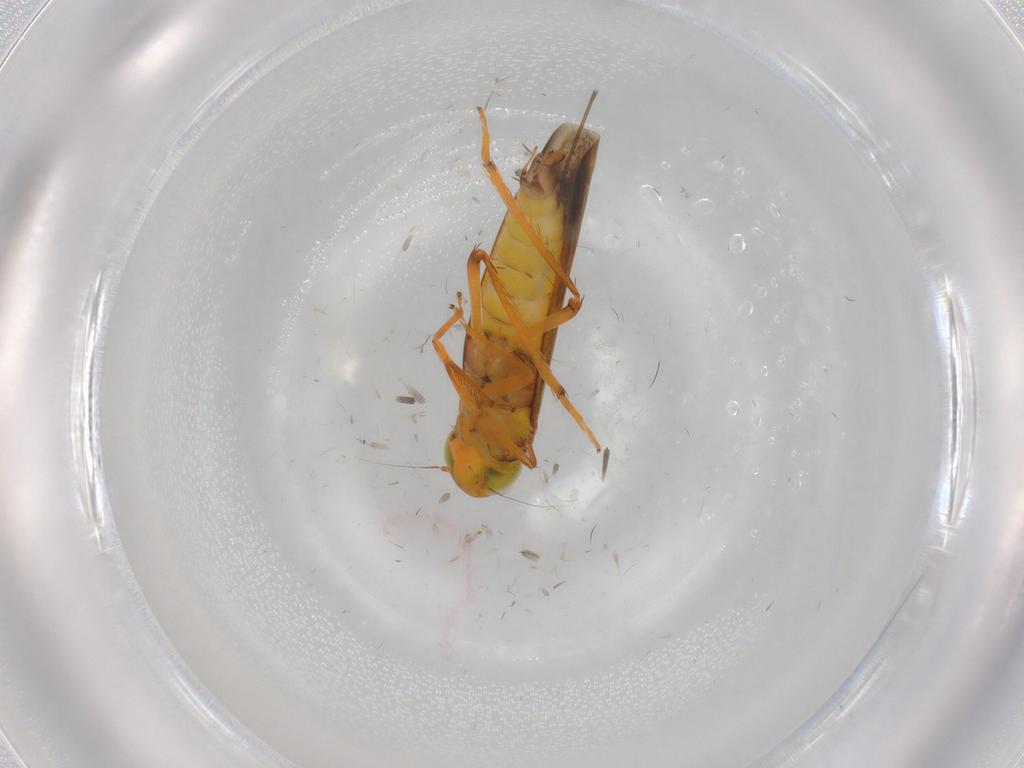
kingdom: Animalia
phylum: Arthropoda
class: Insecta
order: Hemiptera
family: Cicadellidae
